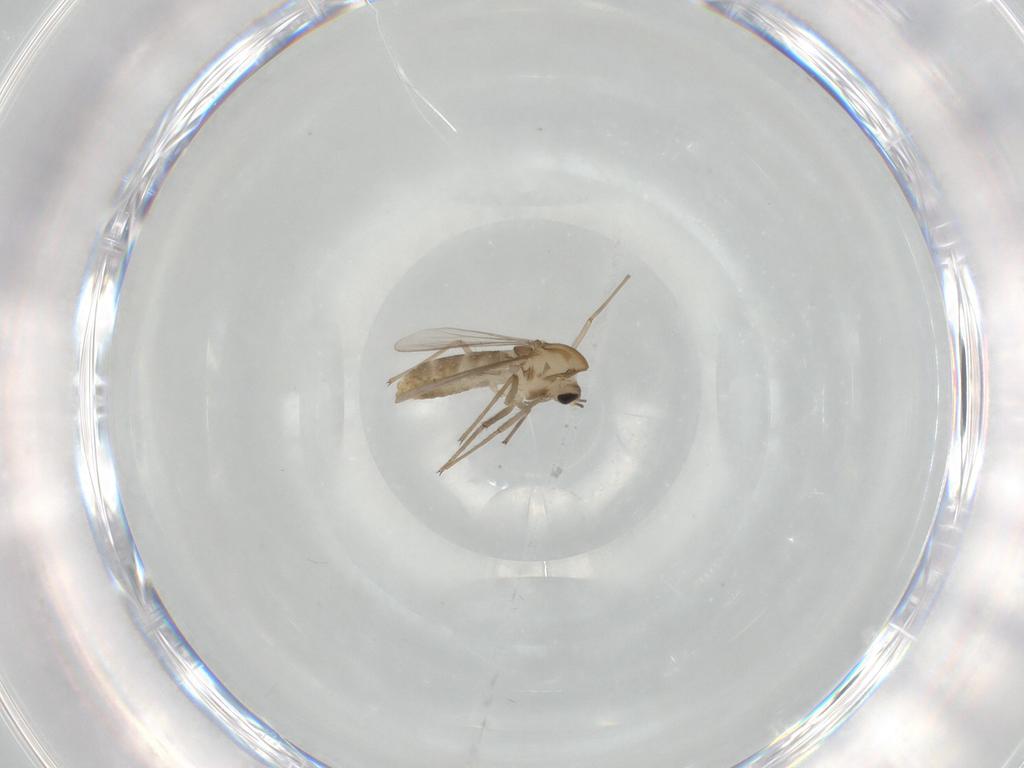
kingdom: Animalia
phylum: Arthropoda
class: Insecta
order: Diptera
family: Chironomidae
